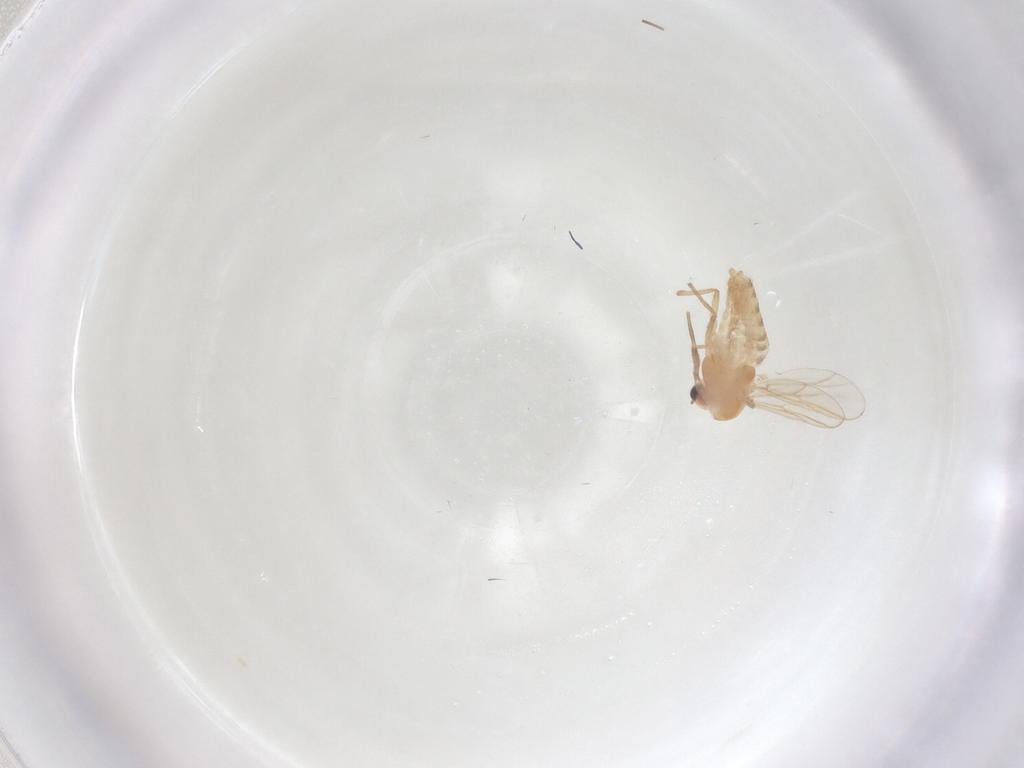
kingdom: Animalia
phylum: Arthropoda
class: Insecta
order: Diptera
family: Chironomidae
